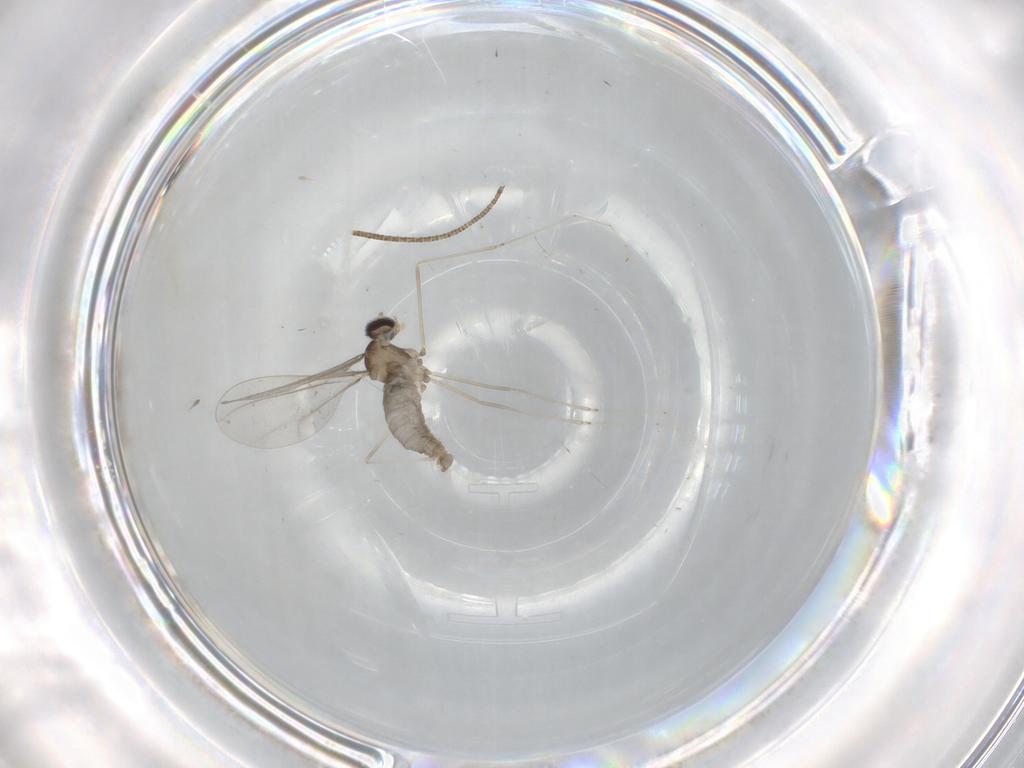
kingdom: Animalia
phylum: Arthropoda
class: Insecta
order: Diptera
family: Cecidomyiidae
